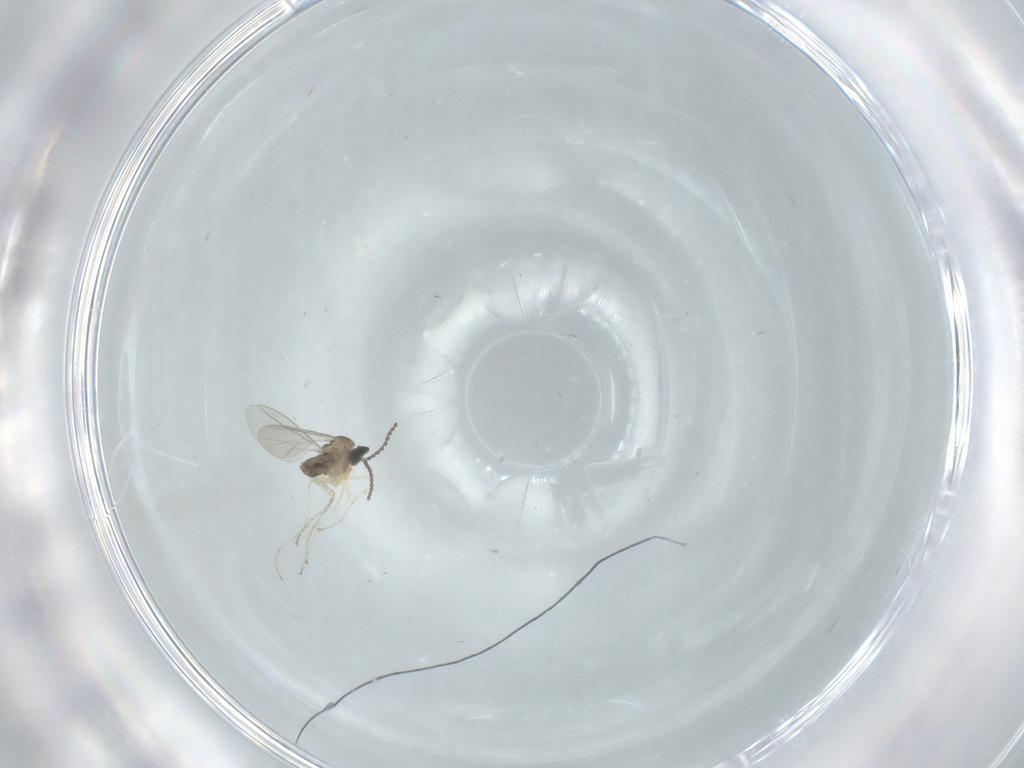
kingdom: Animalia
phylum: Arthropoda
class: Insecta
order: Diptera
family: Cecidomyiidae
